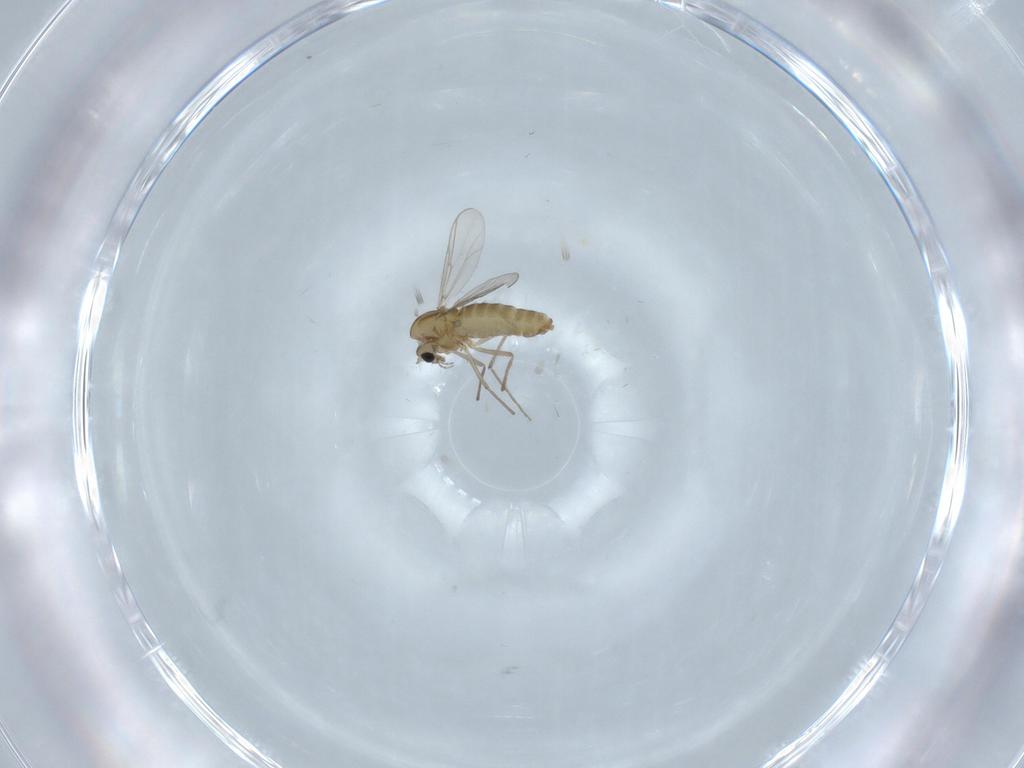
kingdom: Animalia
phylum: Arthropoda
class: Insecta
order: Diptera
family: Chironomidae
